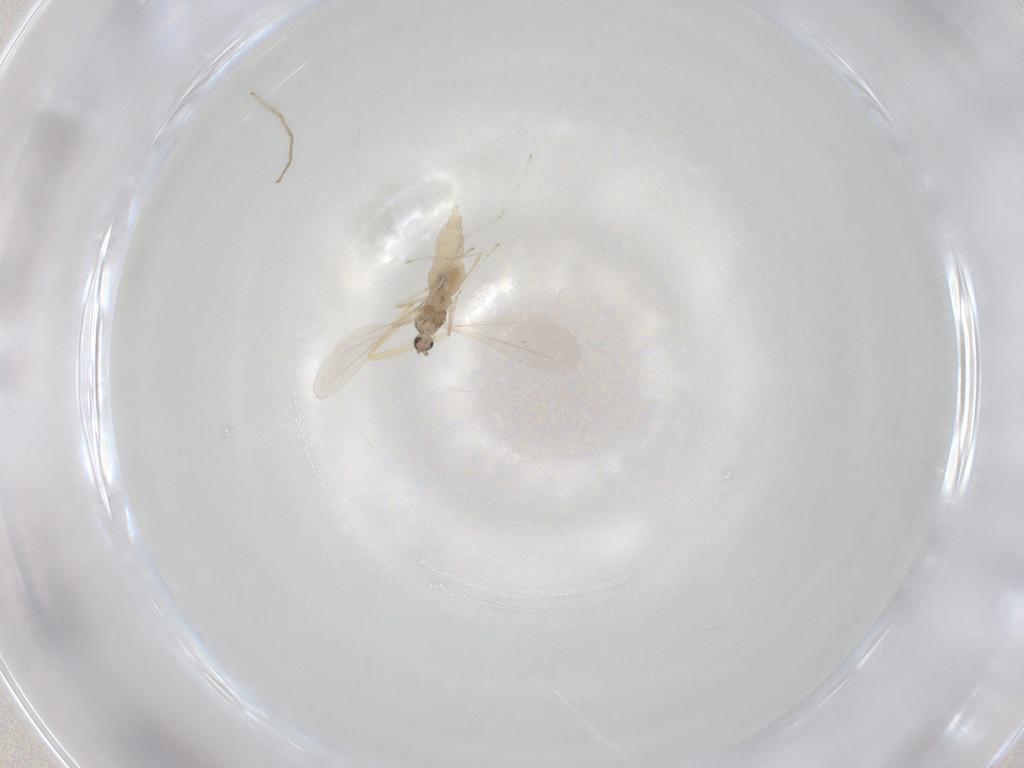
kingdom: Animalia
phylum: Arthropoda
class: Insecta
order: Diptera
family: Cecidomyiidae
